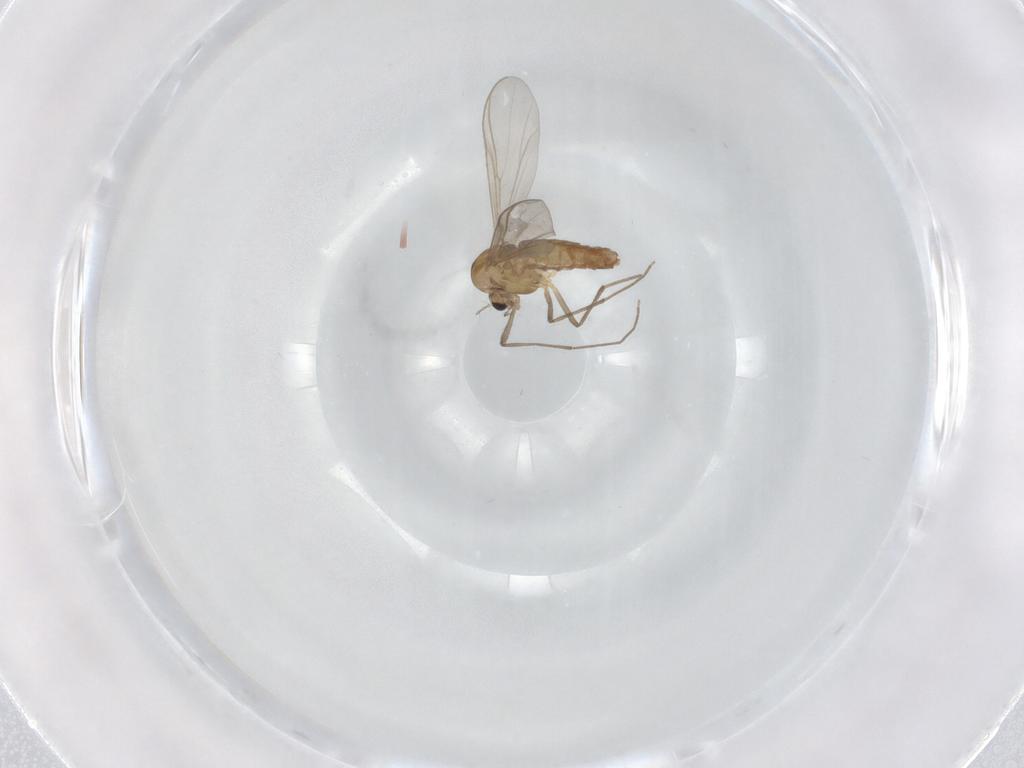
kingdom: Animalia
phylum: Arthropoda
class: Insecta
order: Diptera
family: Chironomidae
